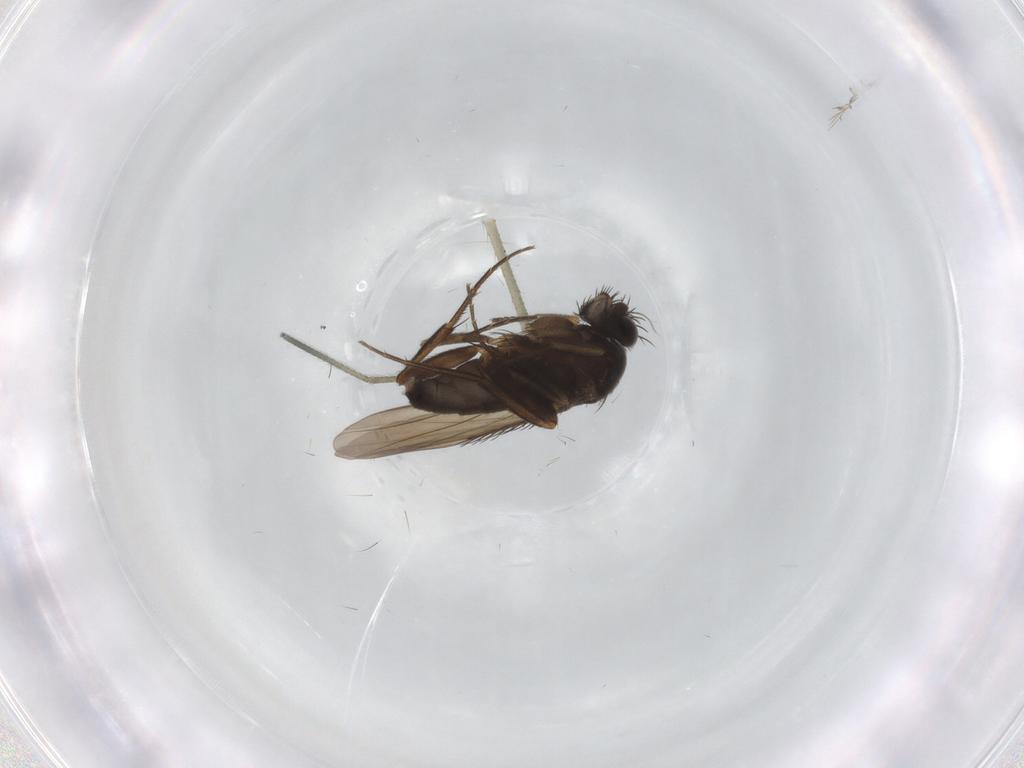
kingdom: Animalia
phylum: Arthropoda
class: Insecta
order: Diptera
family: Phoridae
